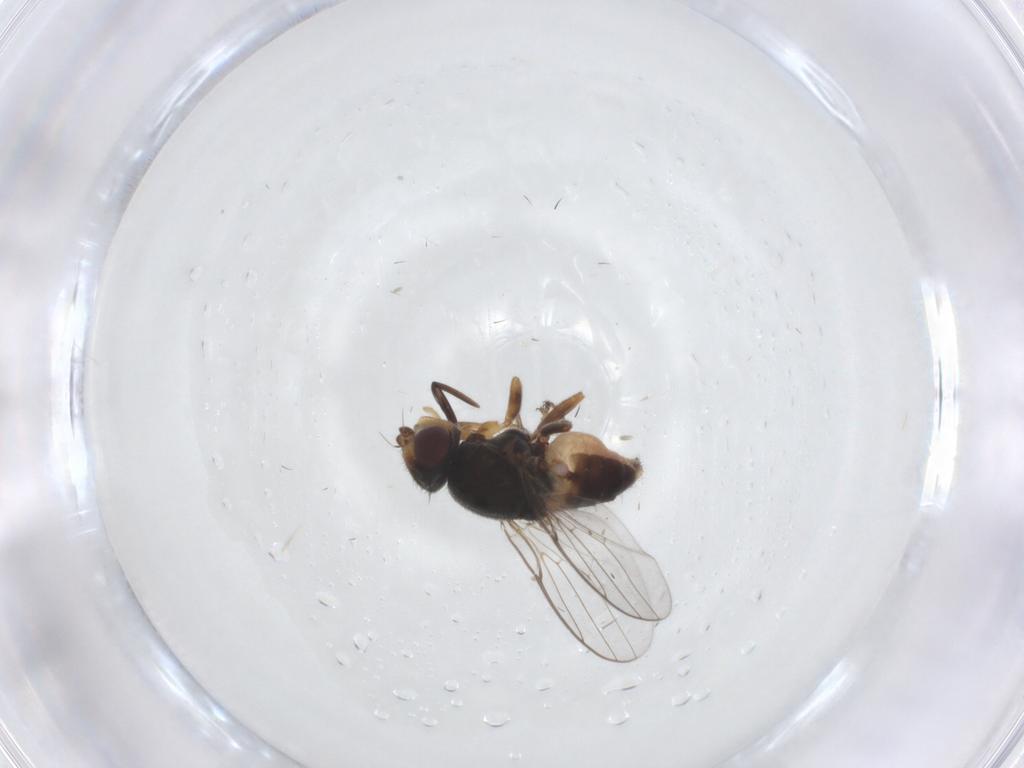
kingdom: Animalia
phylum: Arthropoda
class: Insecta
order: Diptera
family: Chloropidae
